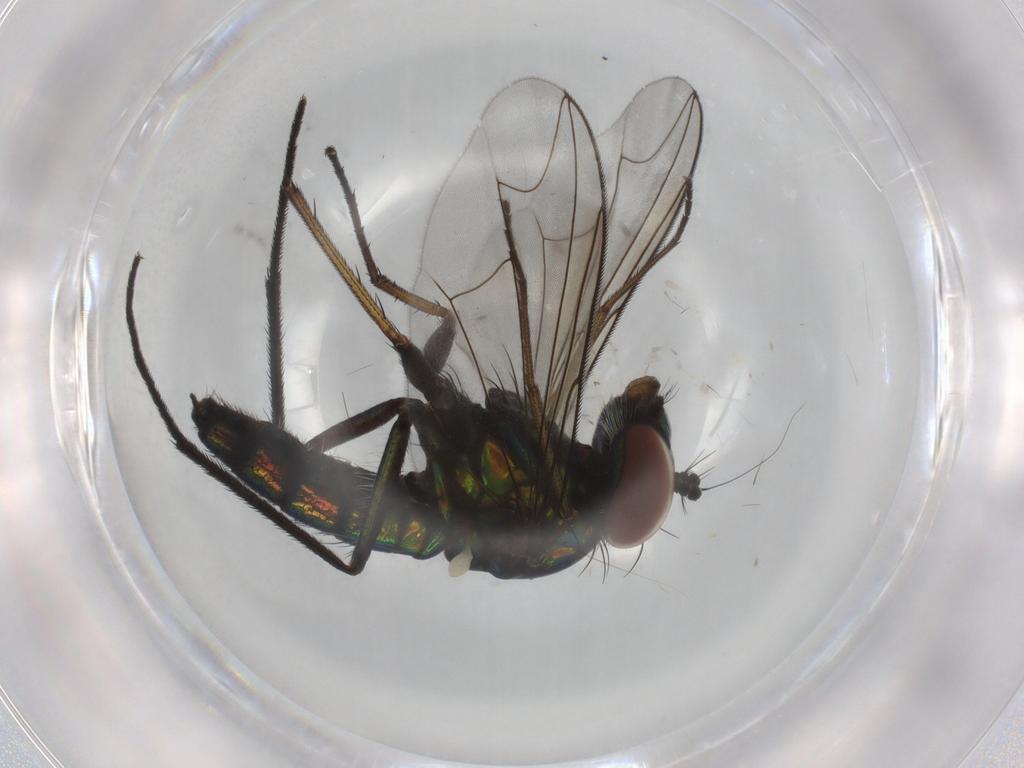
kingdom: Animalia
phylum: Arthropoda
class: Insecta
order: Diptera
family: Dolichopodidae
